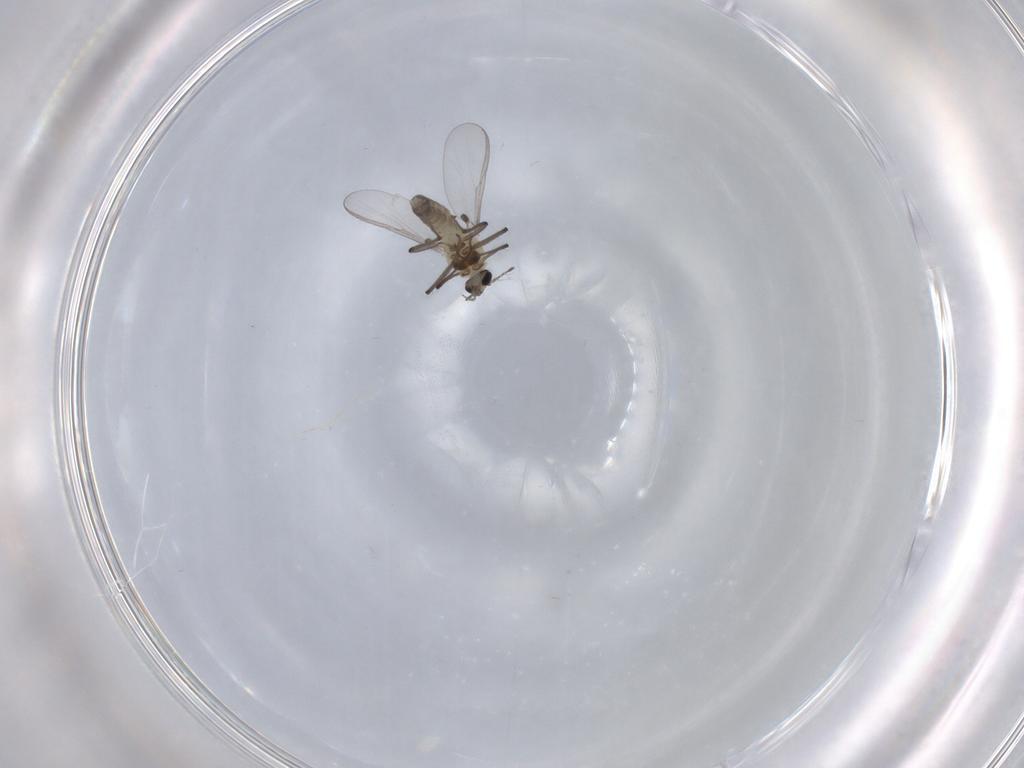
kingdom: Animalia
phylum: Arthropoda
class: Insecta
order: Diptera
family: Chironomidae
